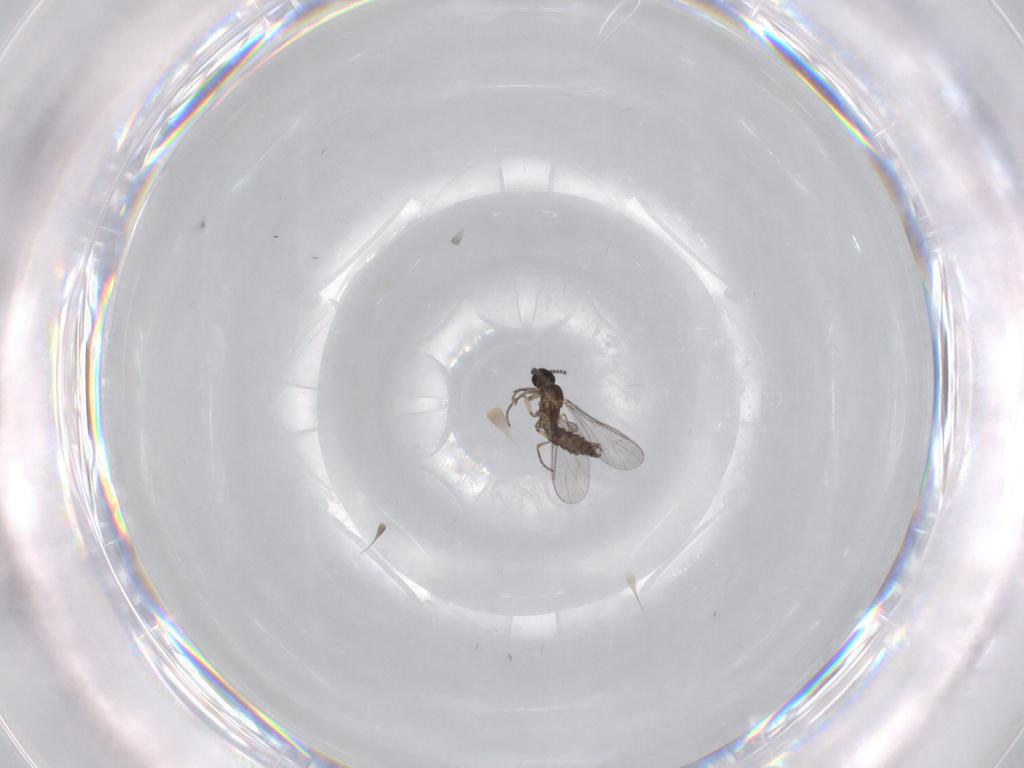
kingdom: Animalia
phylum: Arthropoda
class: Insecta
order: Diptera
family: Sciaridae
